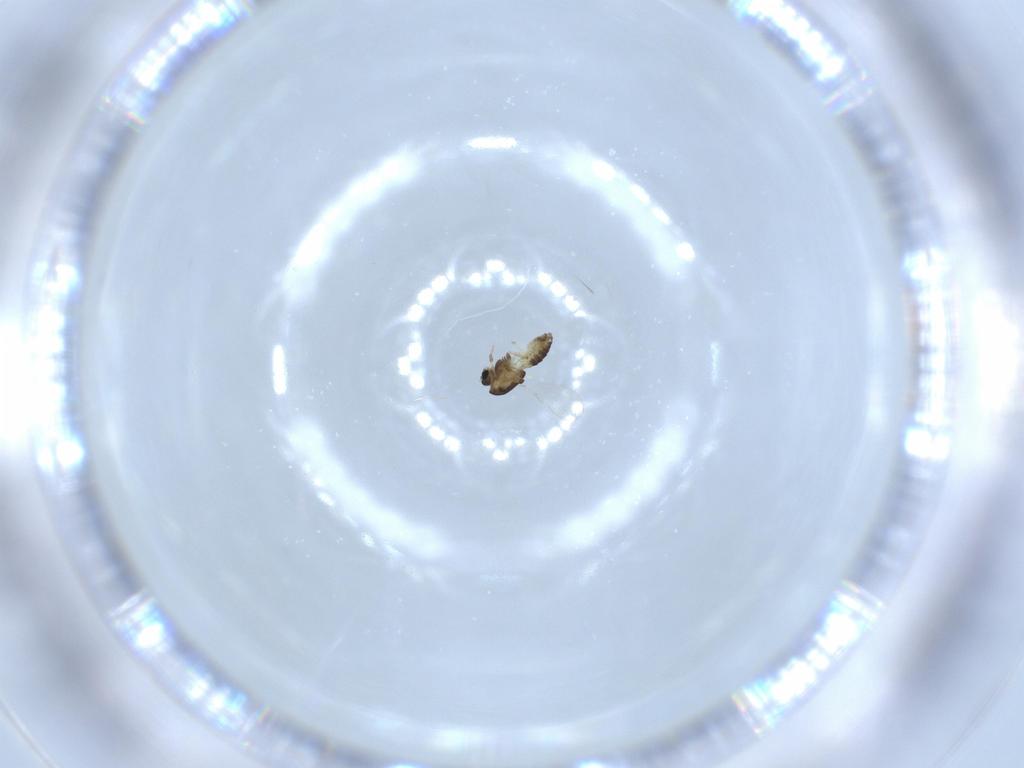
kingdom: Animalia
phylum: Arthropoda
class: Insecta
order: Diptera
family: Chironomidae
